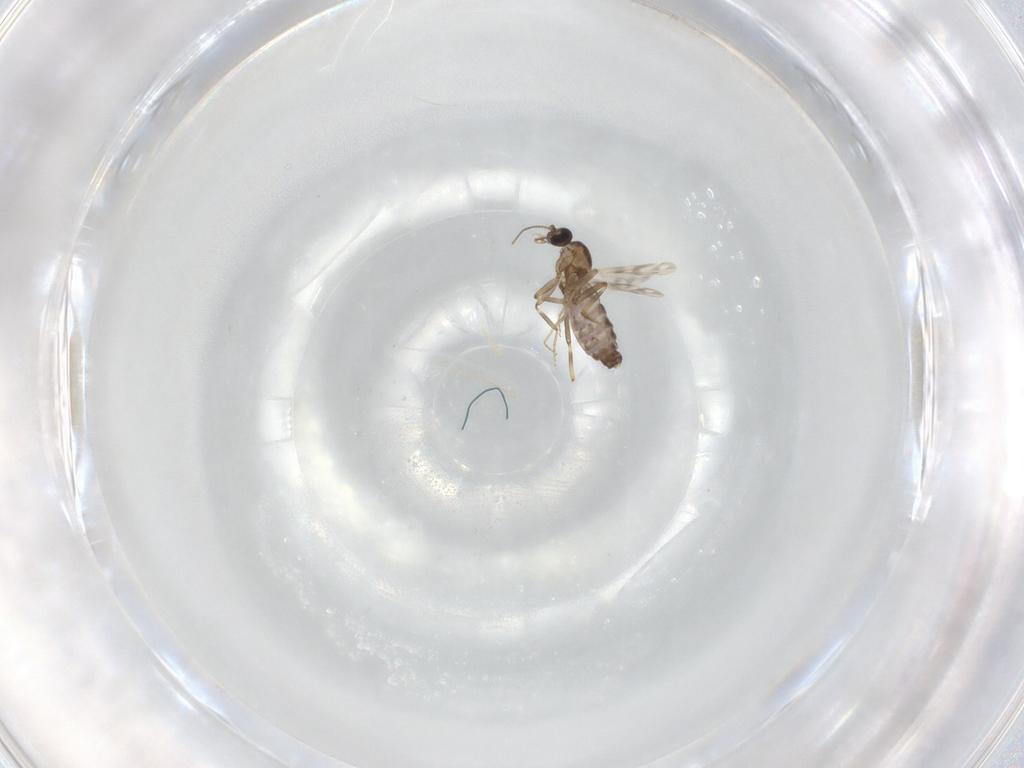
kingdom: Animalia
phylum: Arthropoda
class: Insecta
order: Diptera
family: Ceratopogonidae
